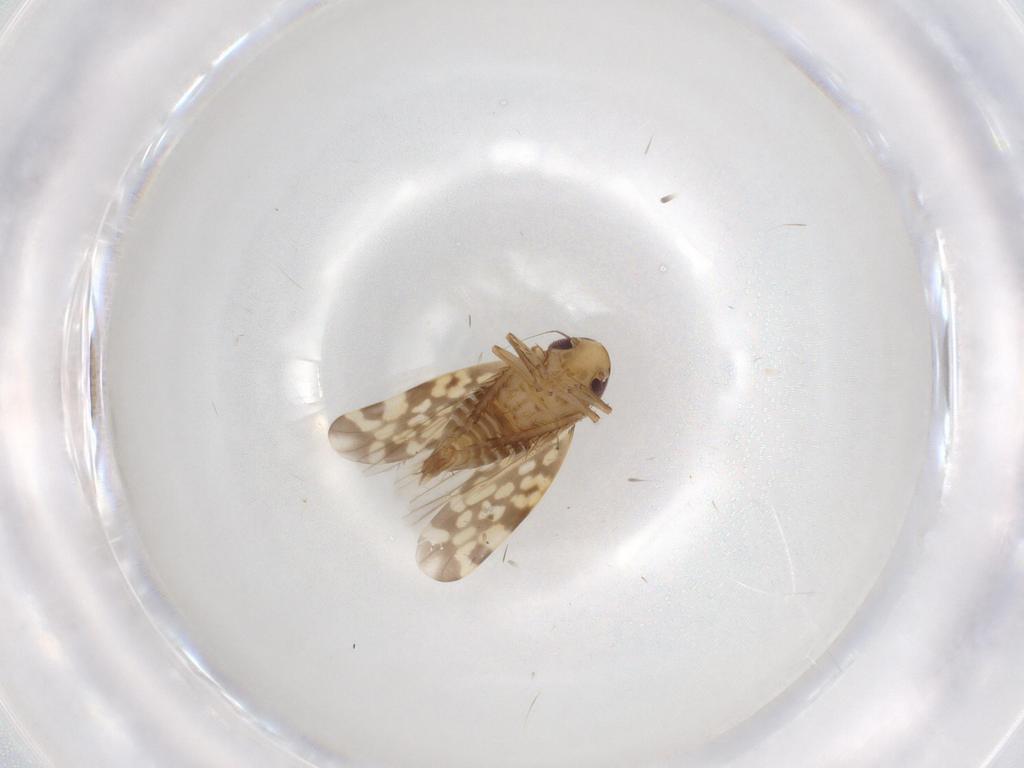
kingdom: Animalia
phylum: Arthropoda
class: Insecta
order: Hemiptera
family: Cicadellidae
